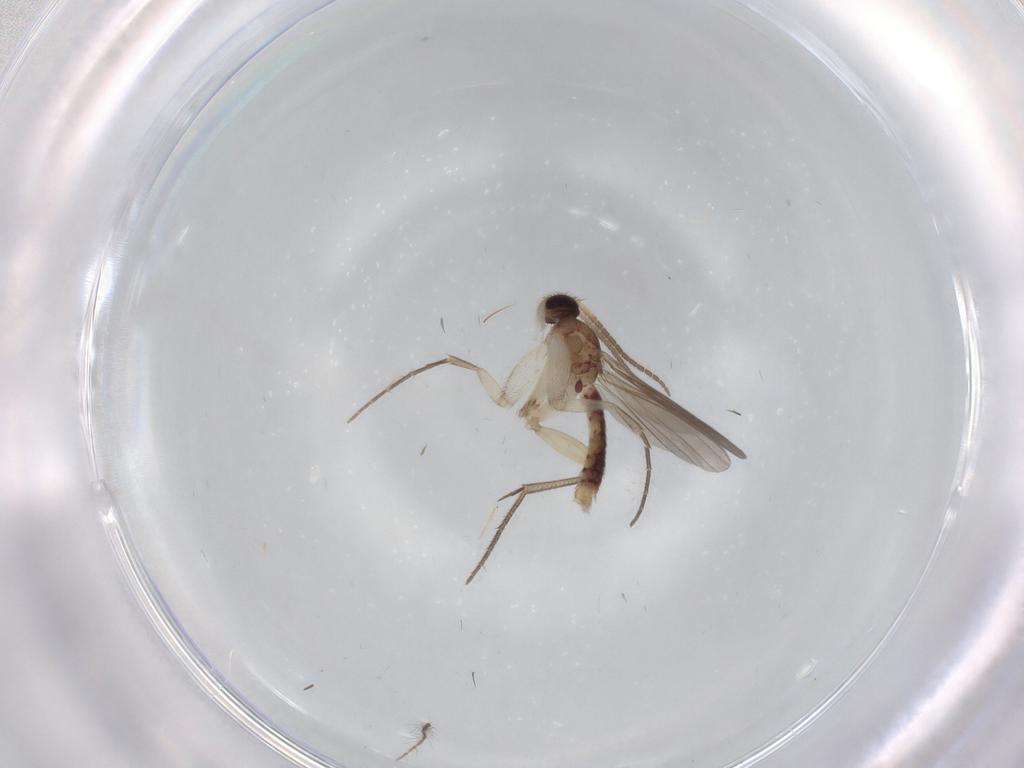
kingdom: Animalia
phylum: Arthropoda
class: Insecta
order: Diptera
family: Mycetophilidae
